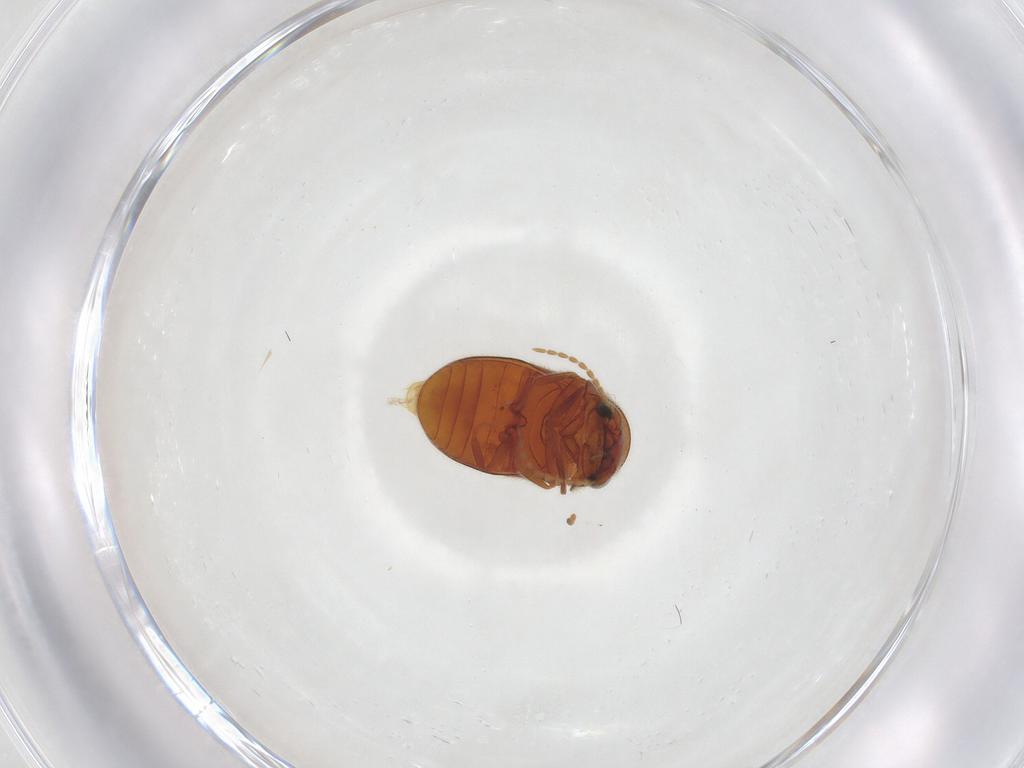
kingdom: Animalia
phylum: Arthropoda
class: Insecta
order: Coleoptera
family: Ptinidae
